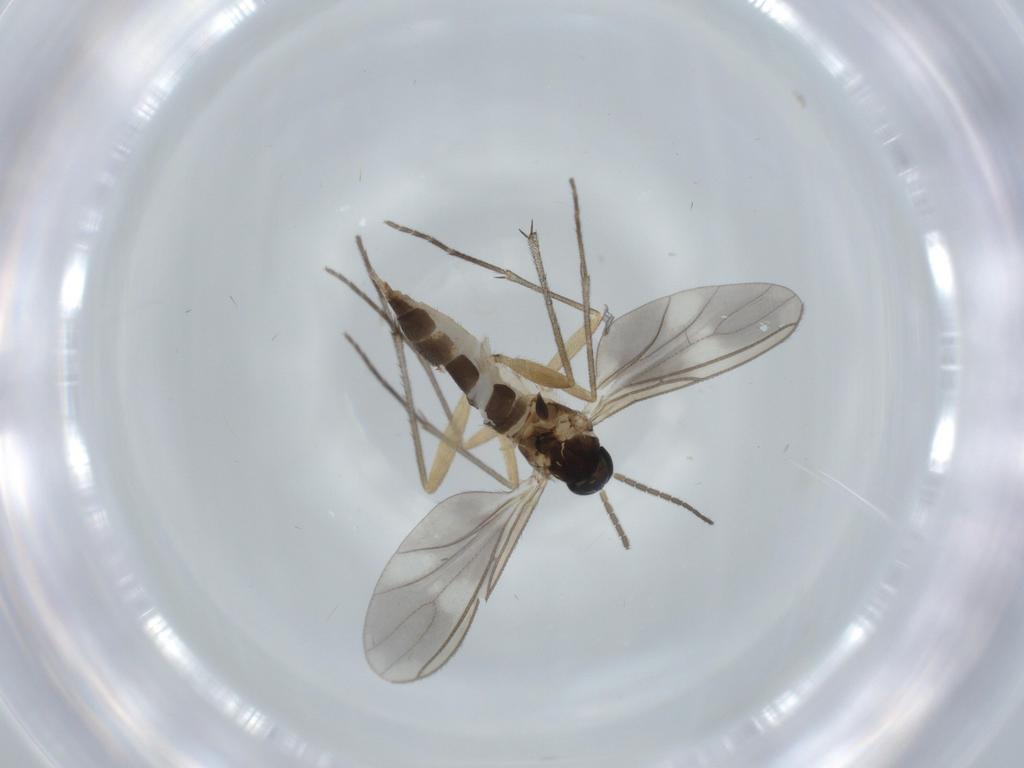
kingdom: Animalia
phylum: Arthropoda
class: Insecta
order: Diptera
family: Sciaridae
